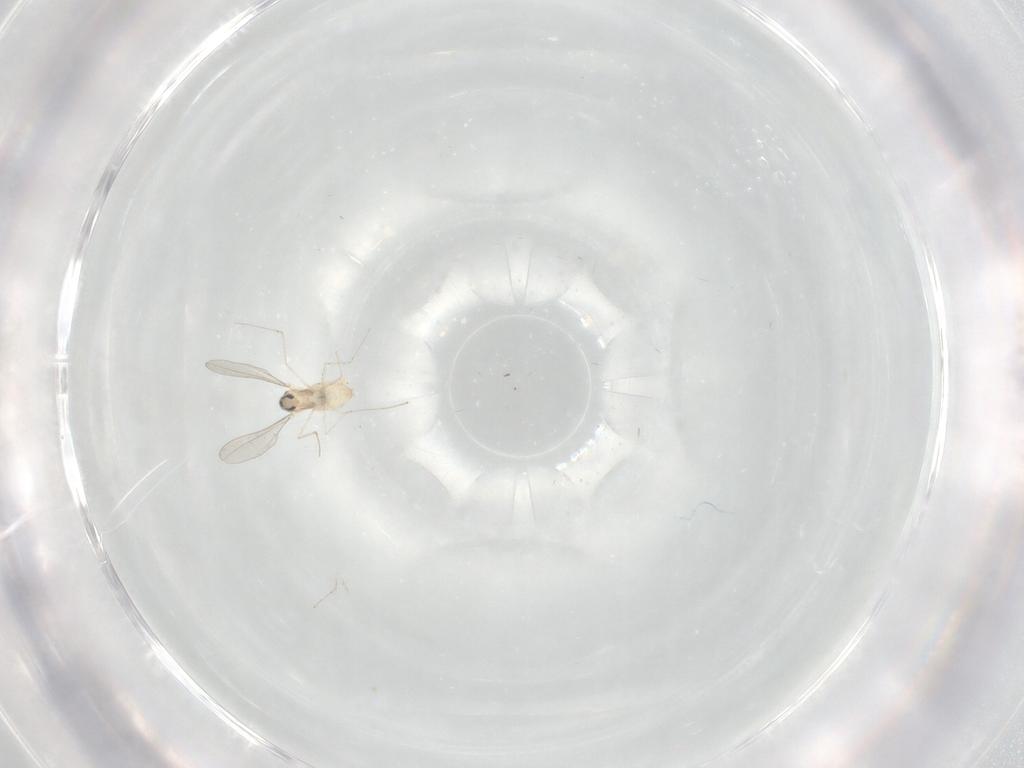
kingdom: Animalia
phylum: Arthropoda
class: Insecta
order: Diptera
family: Cecidomyiidae
